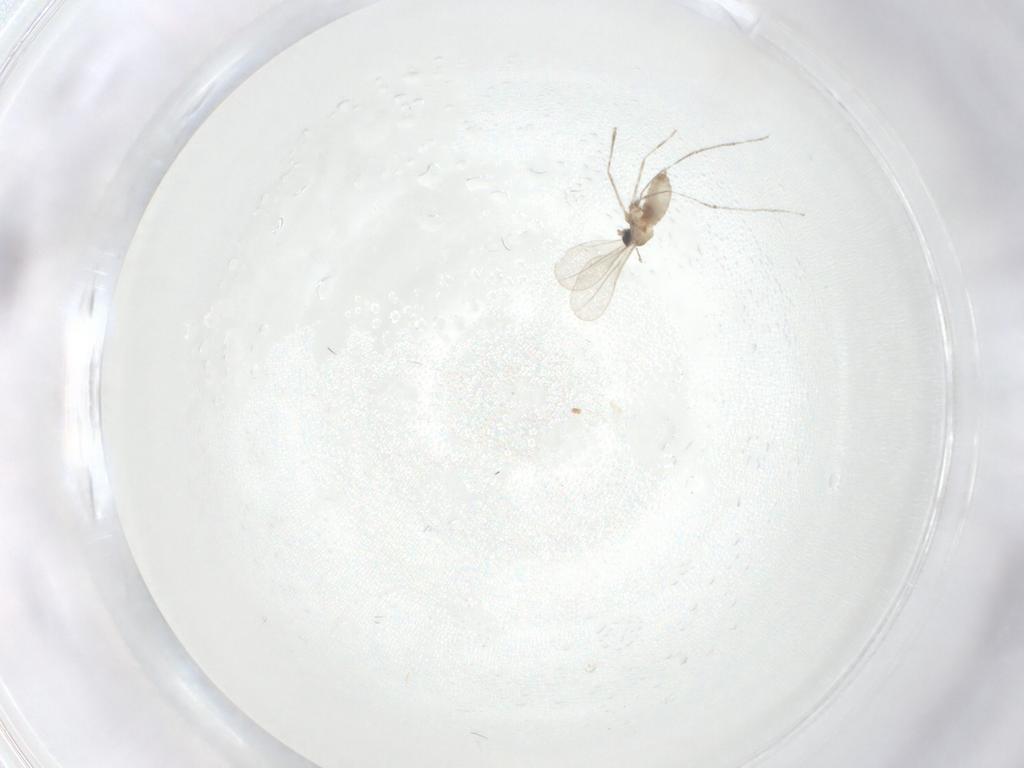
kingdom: Animalia
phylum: Arthropoda
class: Insecta
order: Diptera
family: Cecidomyiidae
